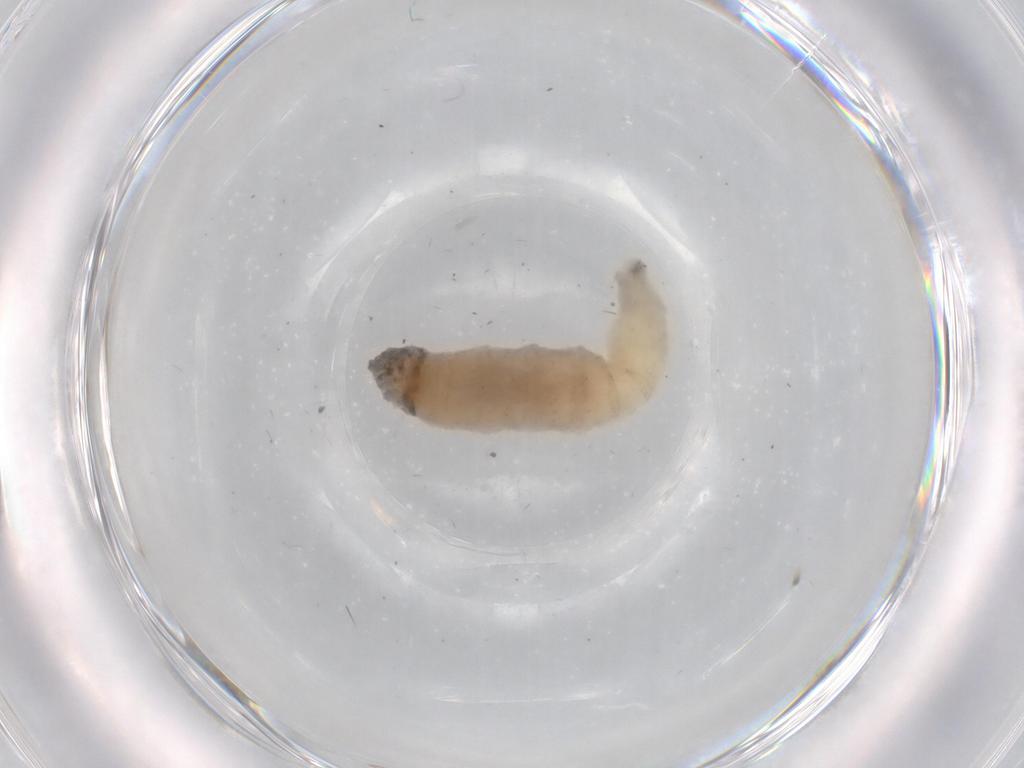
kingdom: Animalia
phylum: Arthropoda
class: Insecta
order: Diptera
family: Drosophilidae
